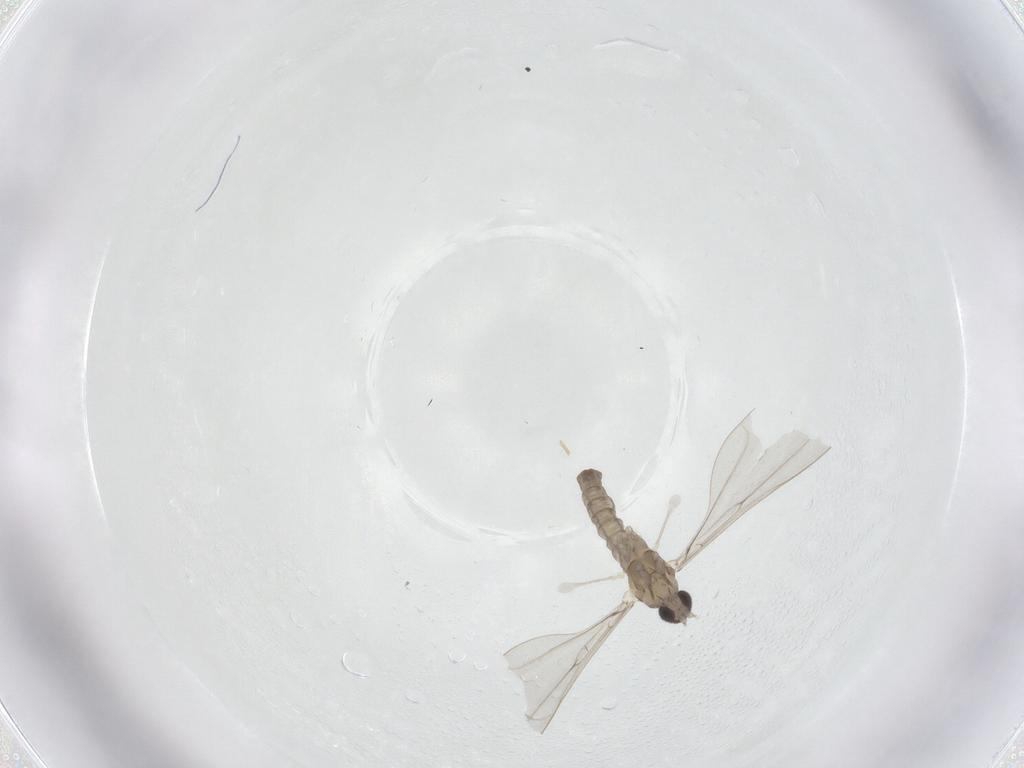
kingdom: Animalia
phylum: Arthropoda
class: Insecta
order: Diptera
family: Cecidomyiidae
